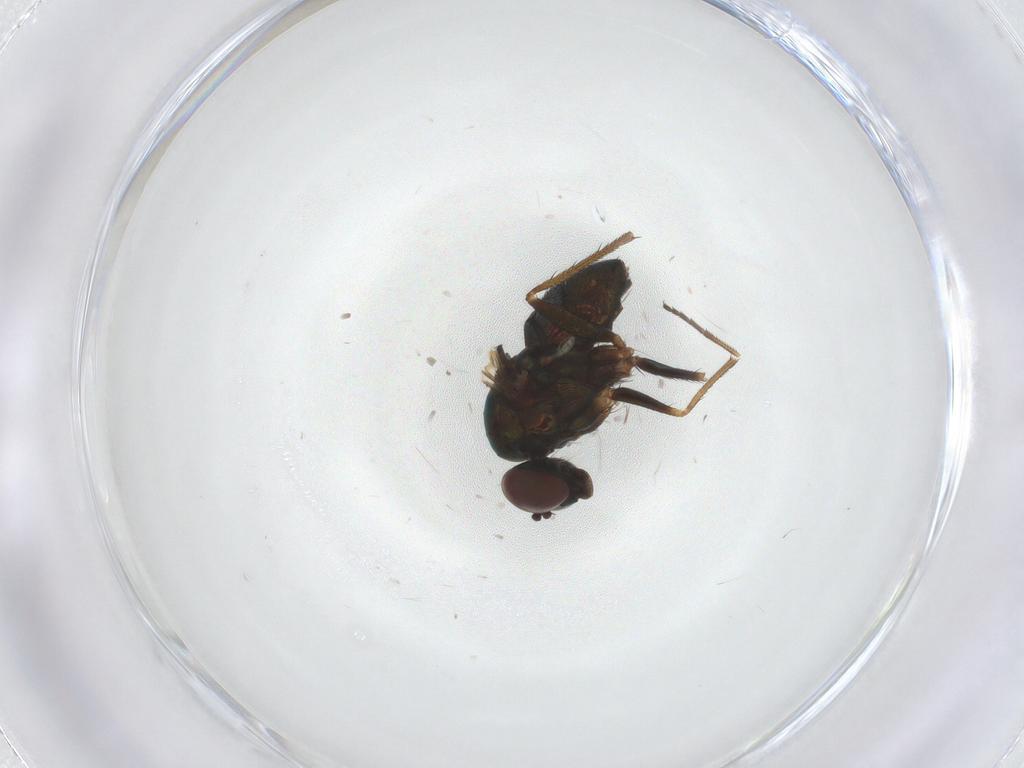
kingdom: Animalia
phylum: Arthropoda
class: Insecta
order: Diptera
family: Dolichopodidae
